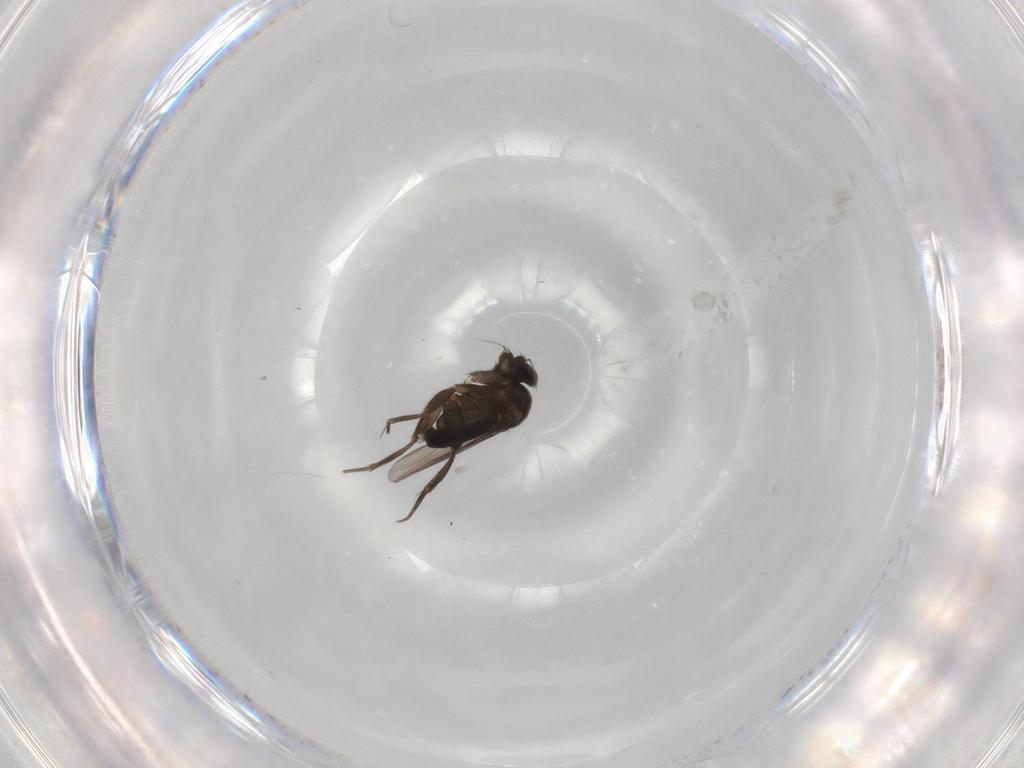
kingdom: Animalia
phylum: Arthropoda
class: Insecta
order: Diptera
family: Phoridae
